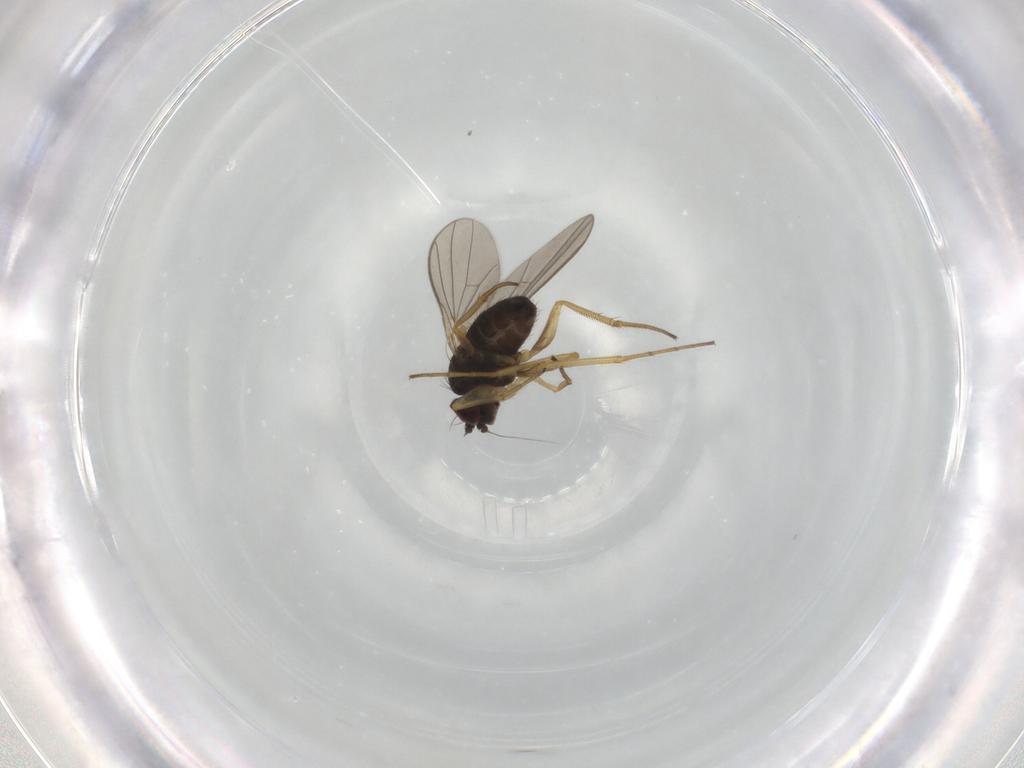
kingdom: Animalia
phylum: Arthropoda
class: Insecta
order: Diptera
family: Dolichopodidae
